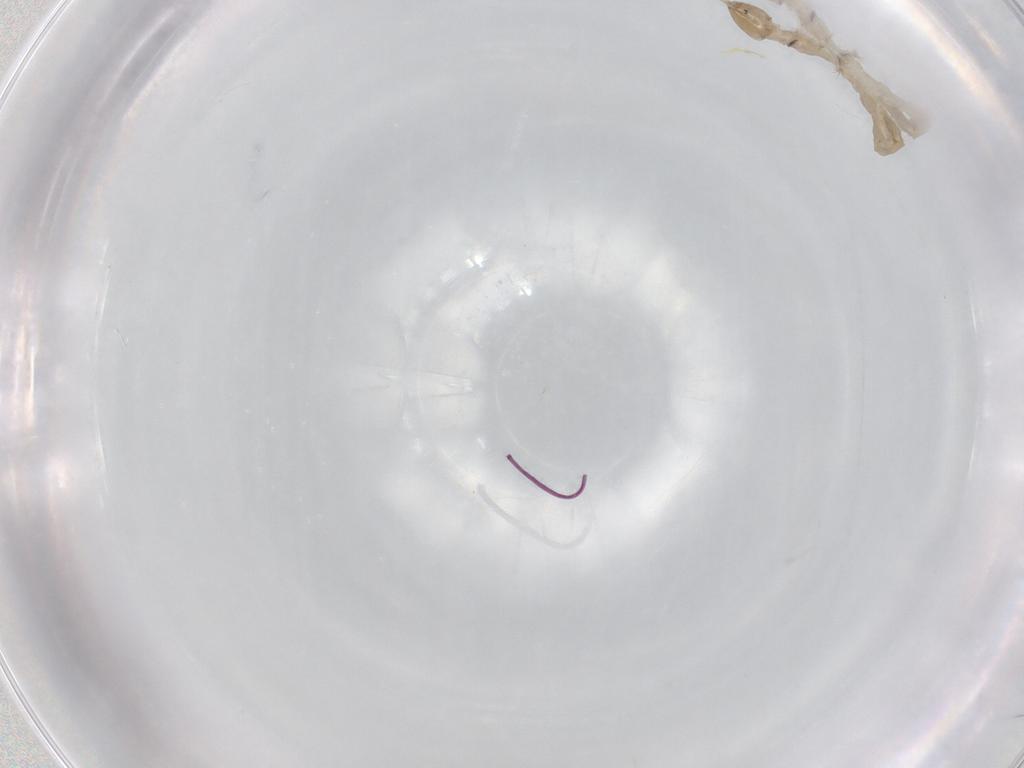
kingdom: Animalia
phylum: Arthropoda
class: Insecta
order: Diptera
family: Chironomidae
